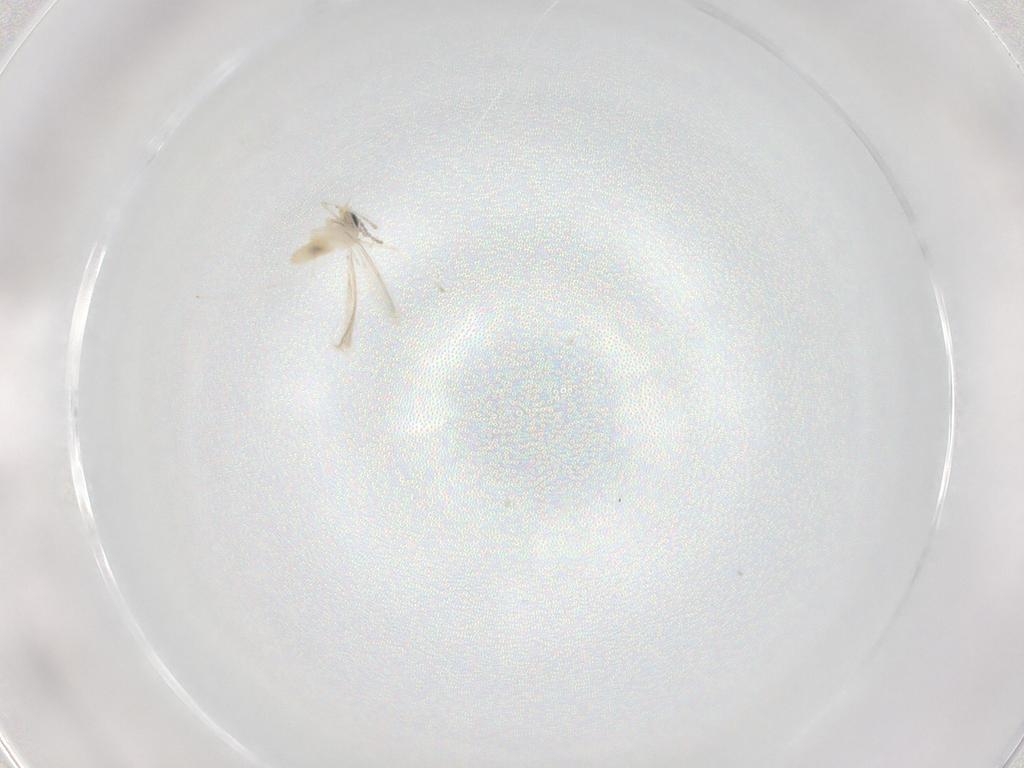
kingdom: Animalia
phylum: Arthropoda
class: Insecta
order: Diptera
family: Cecidomyiidae
